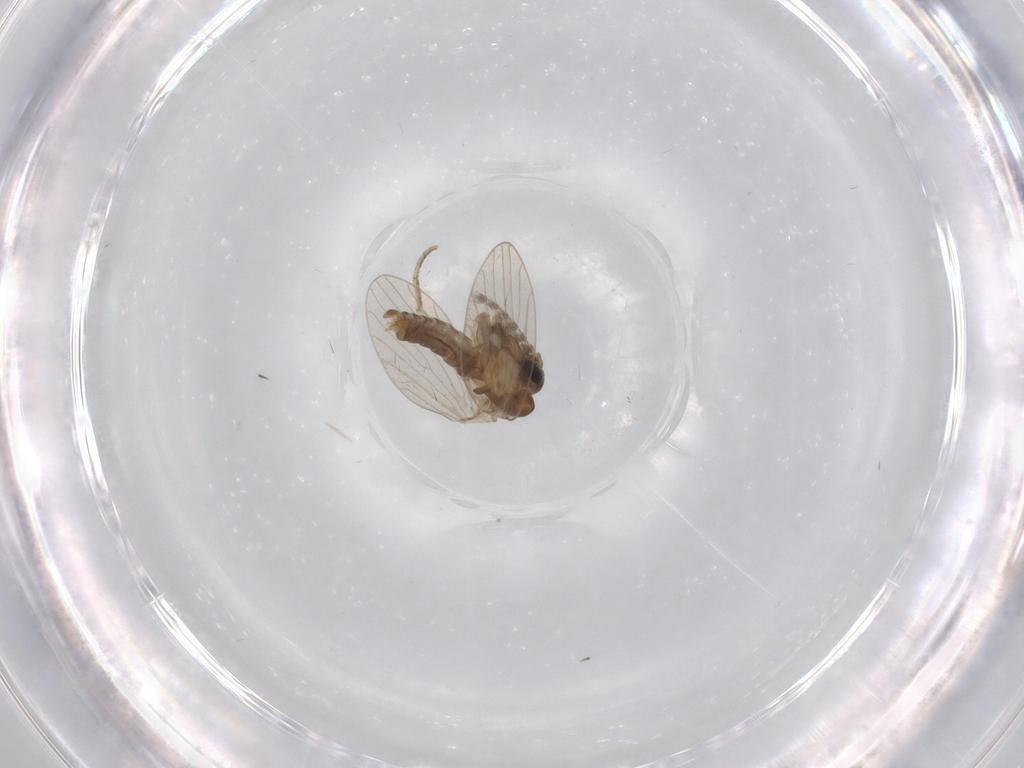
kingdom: Animalia
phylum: Arthropoda
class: Insecta
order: Diptera
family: Psychodidae
